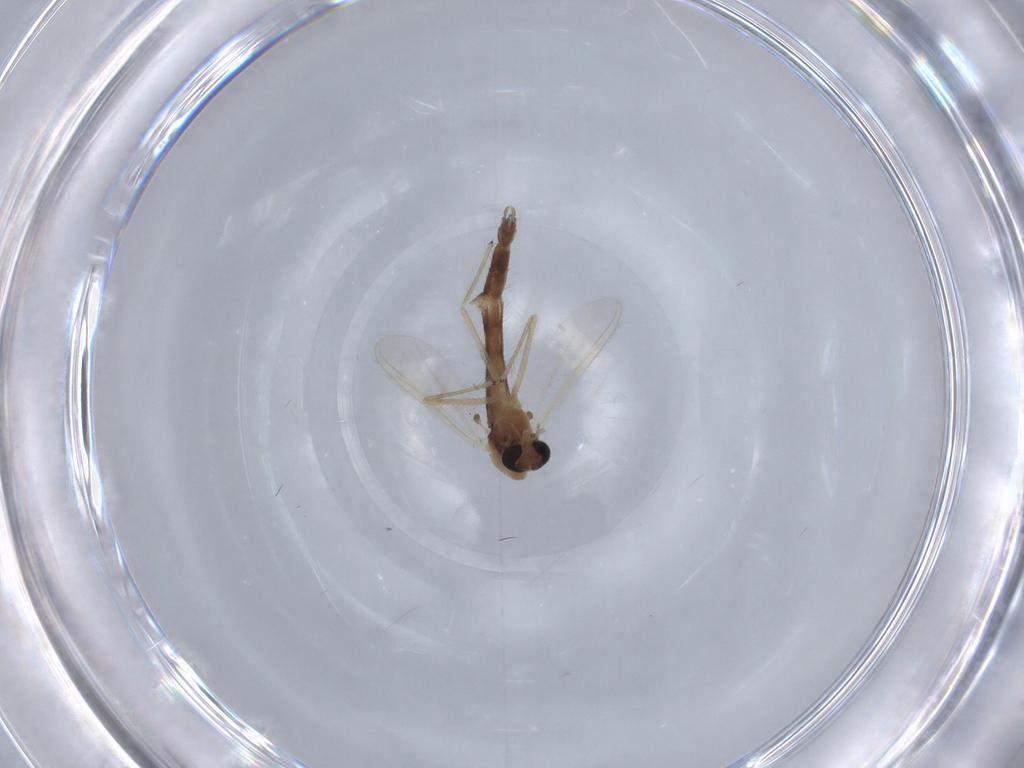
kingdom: Animalia
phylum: Arthropoda
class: Insecta
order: Diptera
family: Chironomidae
